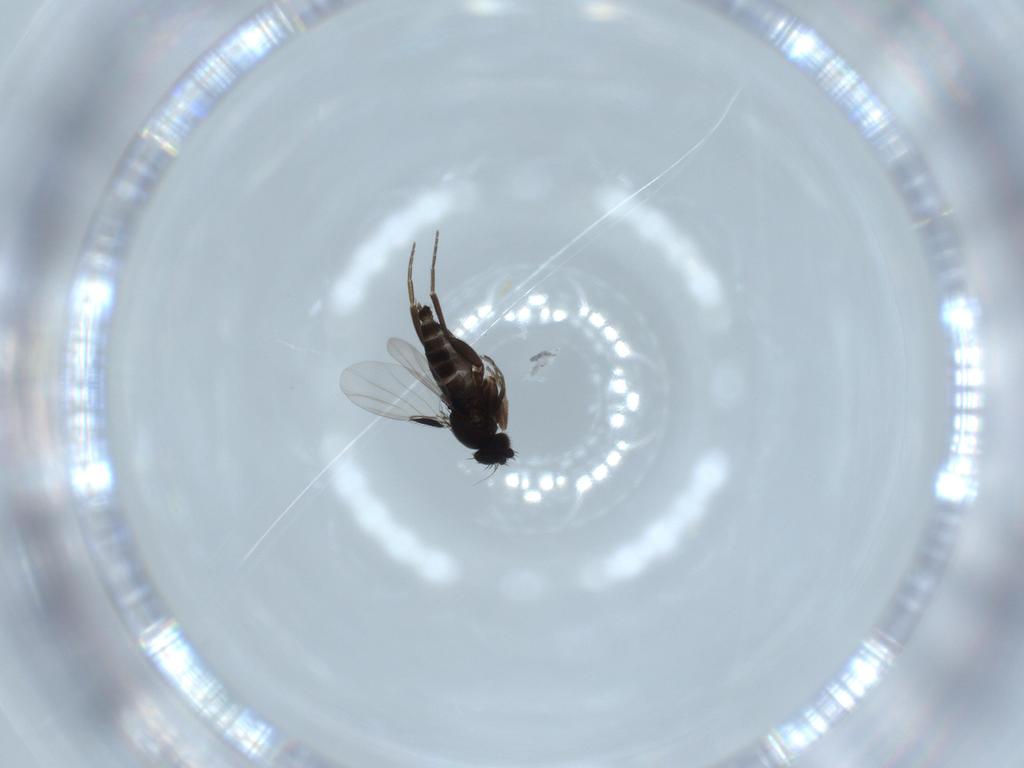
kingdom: Animalia
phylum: Arthropoda
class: Insecta
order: Diptera
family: Phoridae
